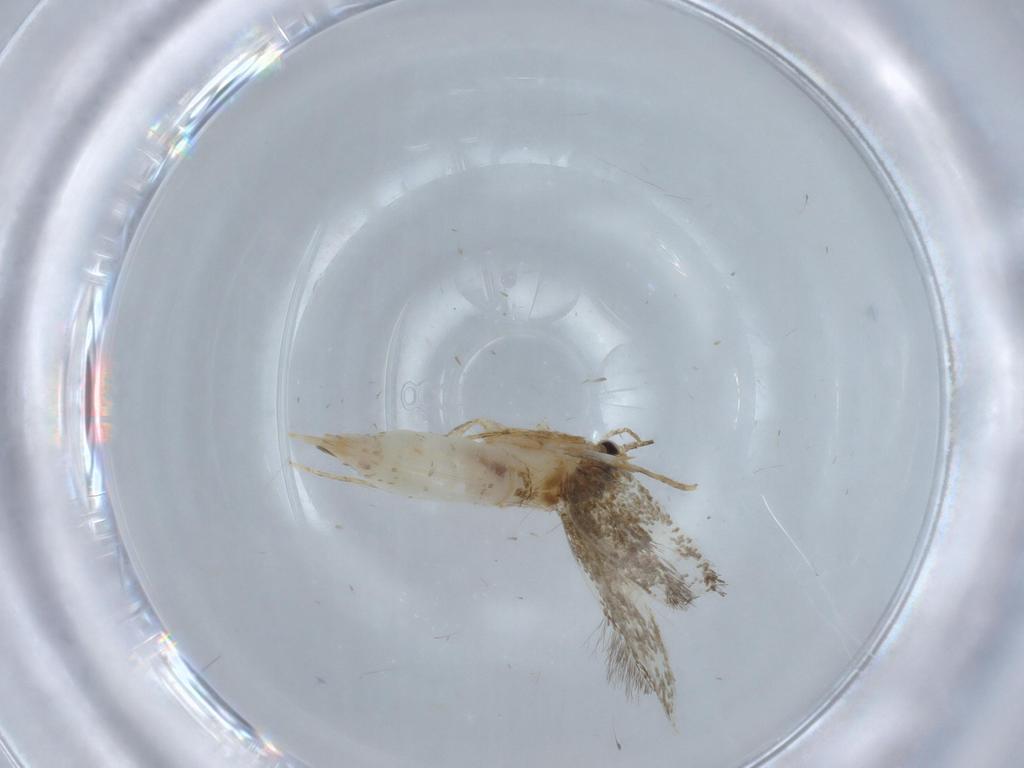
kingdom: Animalia
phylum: Arthropoda
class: Insecta
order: Lepidoptera
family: Tineidae
